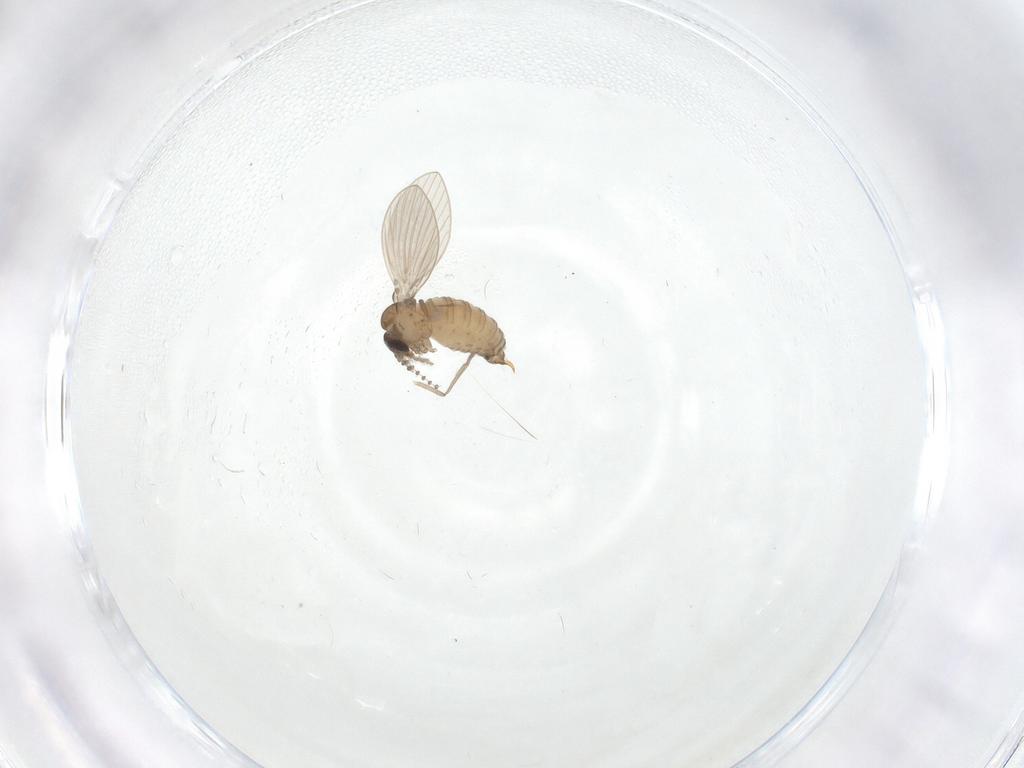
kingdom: Animalia
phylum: Arthropoda
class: Insecta
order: Diptera
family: Psychodidae
